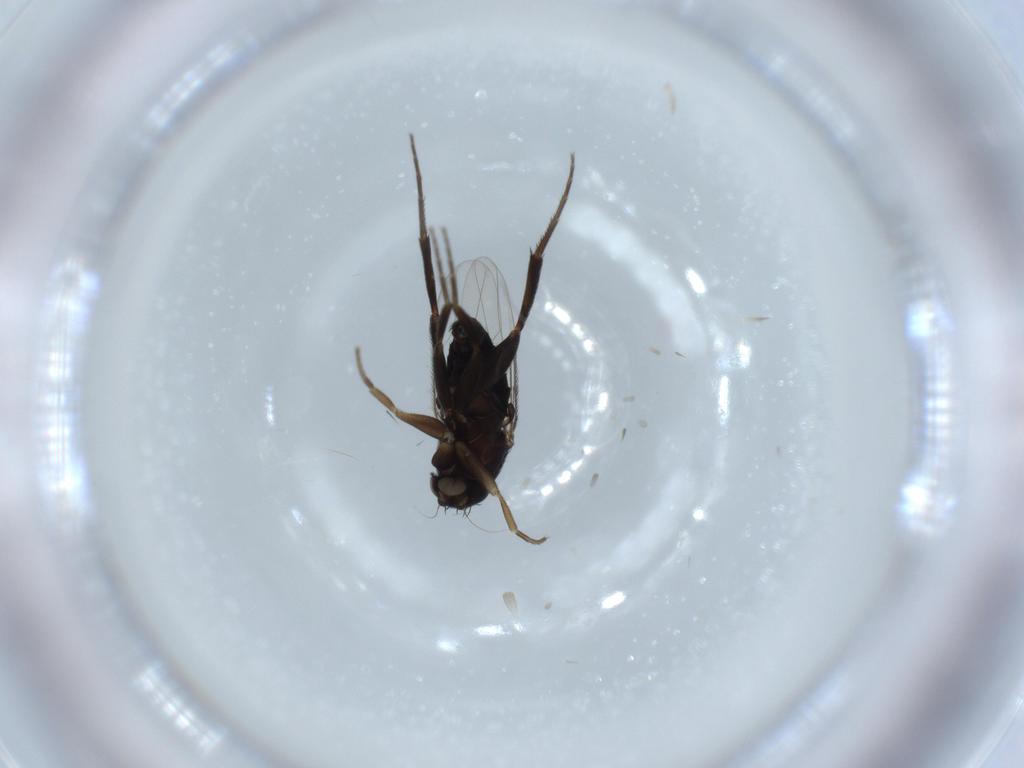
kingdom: Animalia
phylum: Arthropoda
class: Insecta
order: Diptera
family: Phoridae
